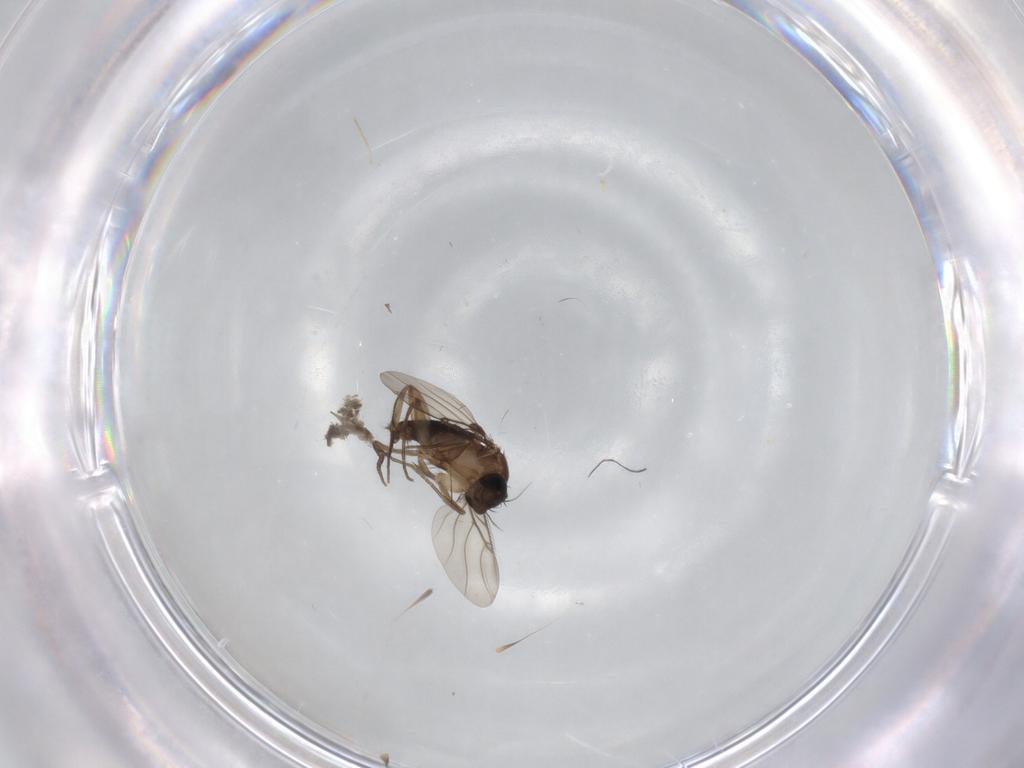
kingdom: Animalia
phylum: Arthropoda
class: Insecta
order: Diptera
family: Phoridae
